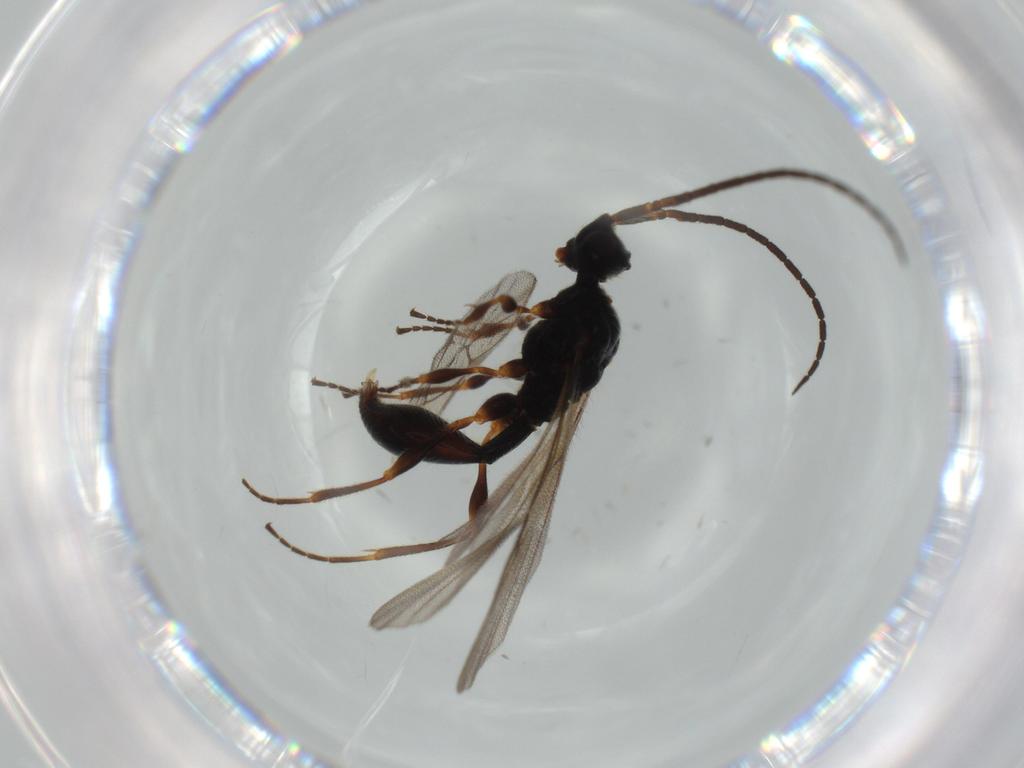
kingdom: Animalia
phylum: Arthropoda
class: Insecta
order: Hymenoptera
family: Ichneumonidae
